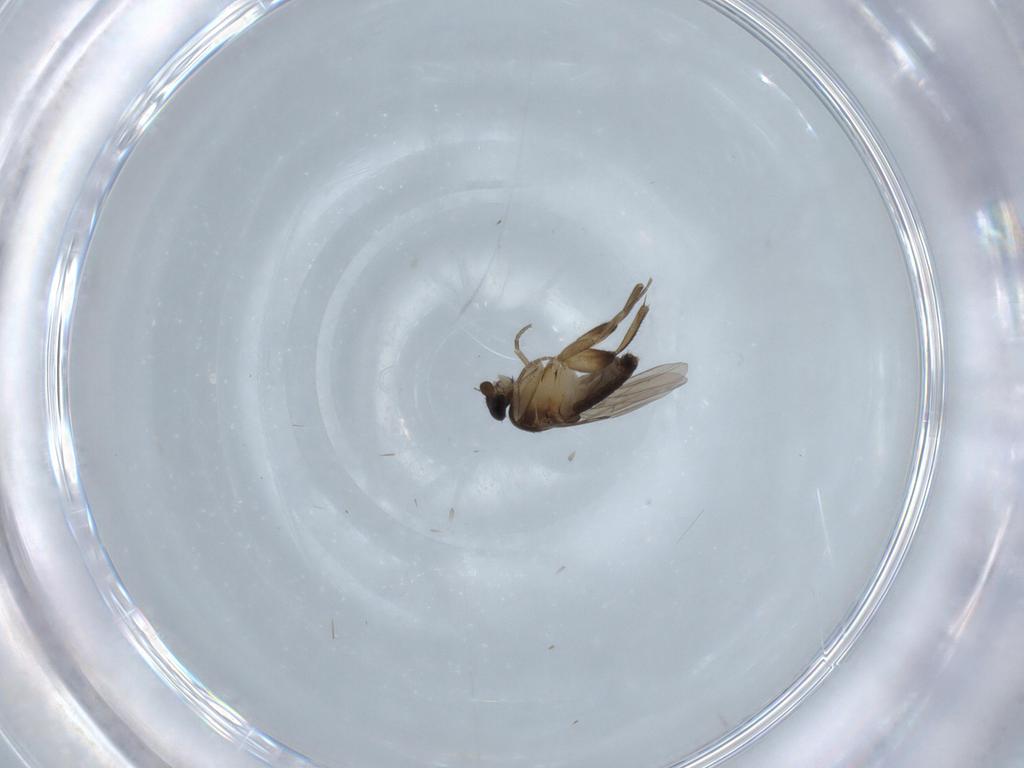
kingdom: Animalia
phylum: Arthropoda
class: Insecta
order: Diptera
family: Phoridae
